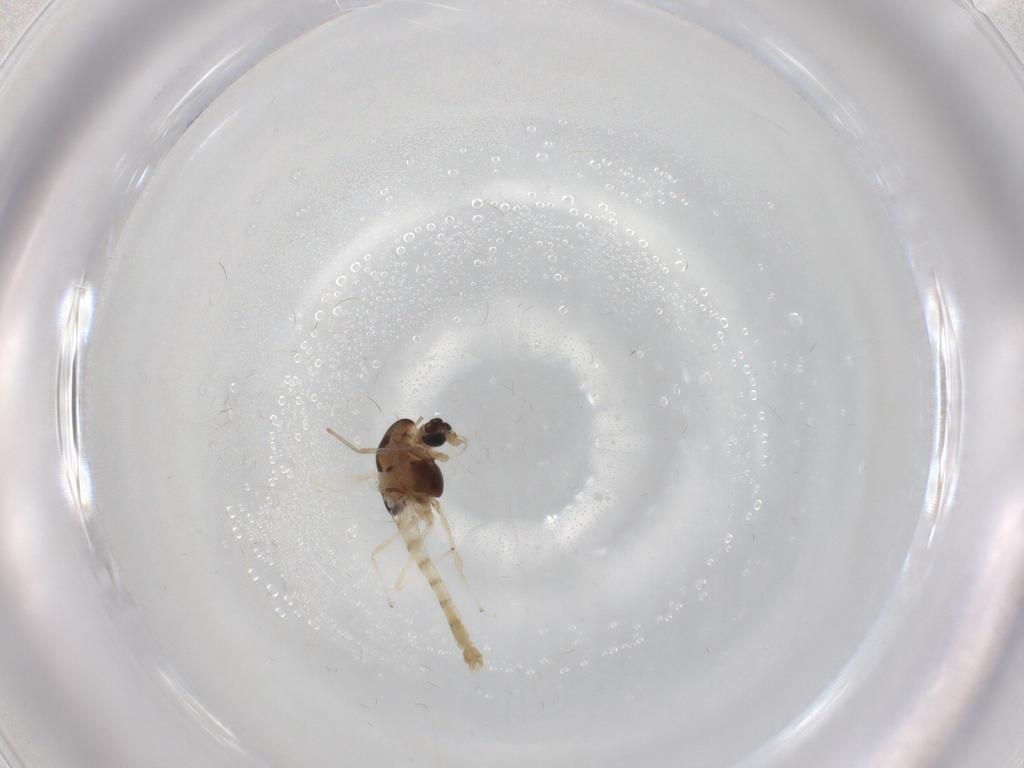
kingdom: Animalia
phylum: Arthropoda
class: Insecta
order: Diptera
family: Chironomidae
